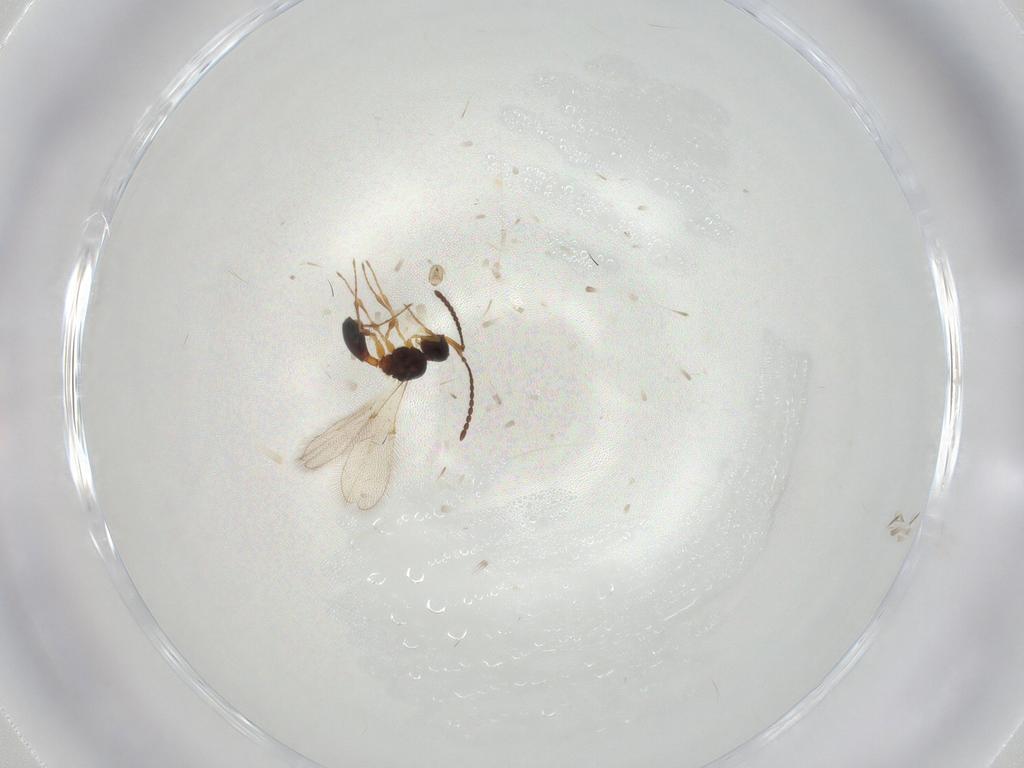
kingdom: Animalia
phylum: Arthropoda
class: Insecta
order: Hymenoptera
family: Diapriidae
